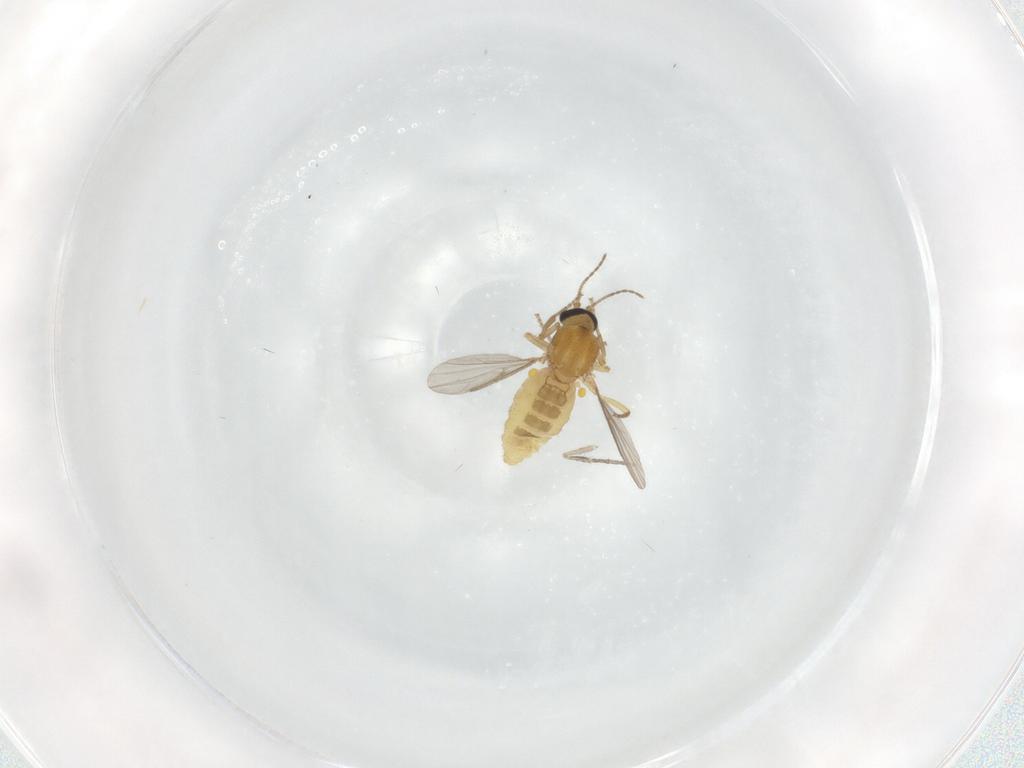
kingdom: Animalia
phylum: Arthropoda
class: Insecta
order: Diptera
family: Ceratopogonidae
